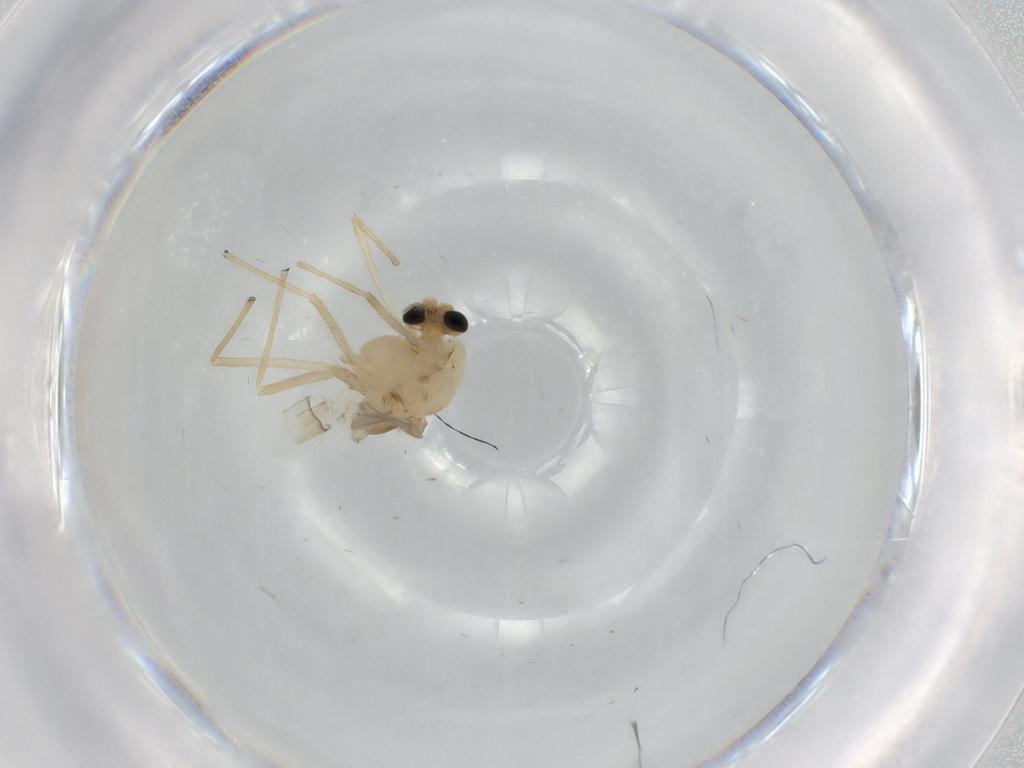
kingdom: Animalia
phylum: Arthropoda
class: Insecta
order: Diptera
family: Chironomidae
